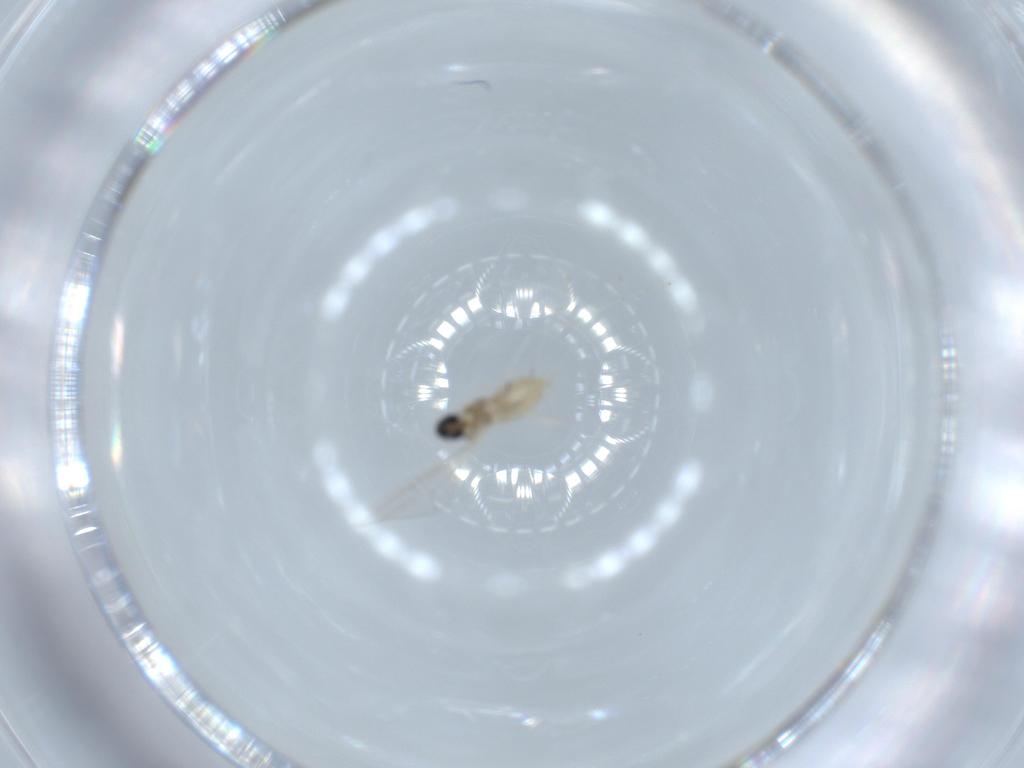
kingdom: Animalia
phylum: Arthropoda
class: Insecta
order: Diptera
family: Cecidomyiidae
